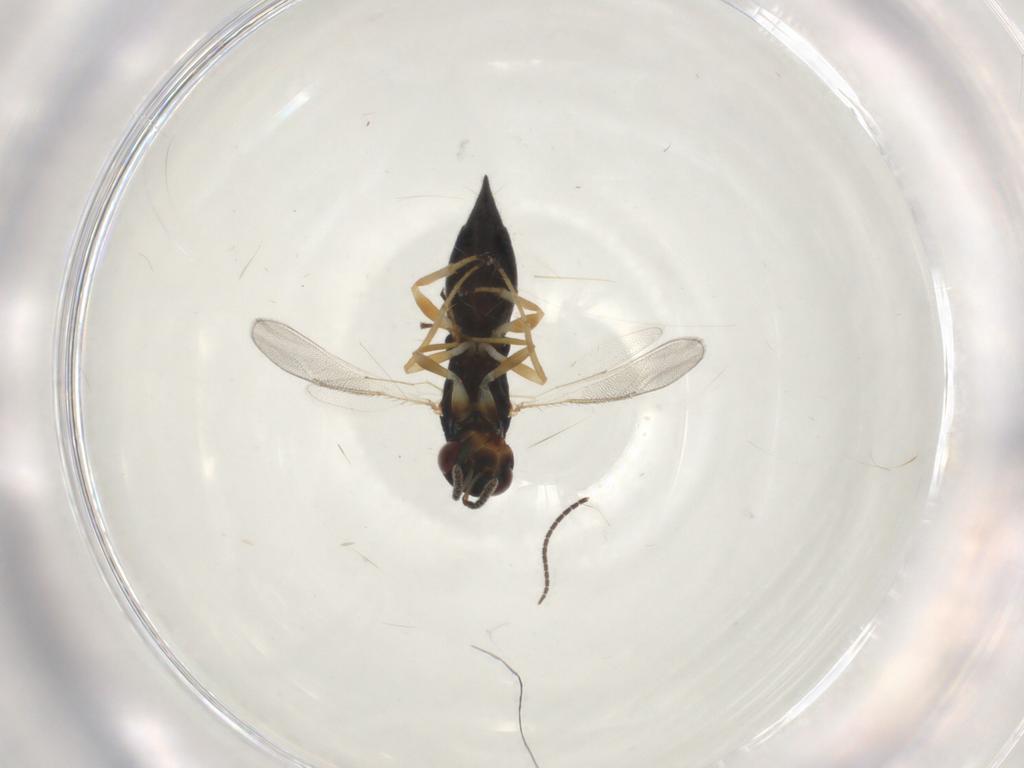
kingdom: Animalia
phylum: Arthropoda
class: Insecta
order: Hymenoptera
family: Eulophidae
